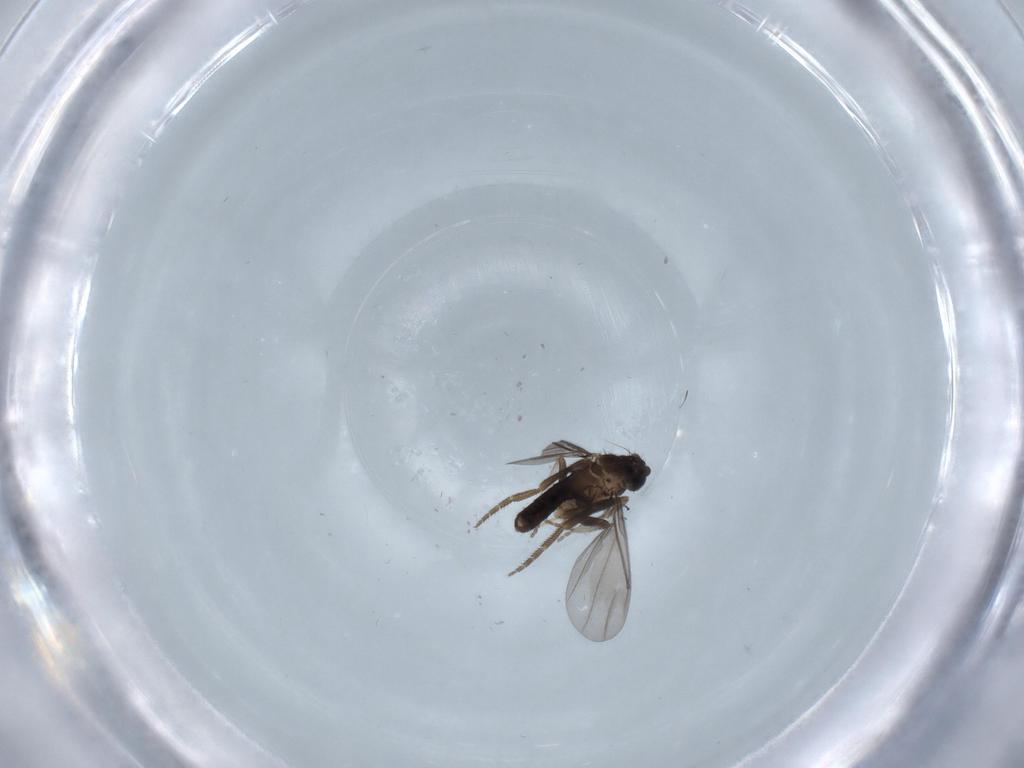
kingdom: Animalia
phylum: Arthropoda
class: Insecta
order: Diptera
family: Chironomidae
